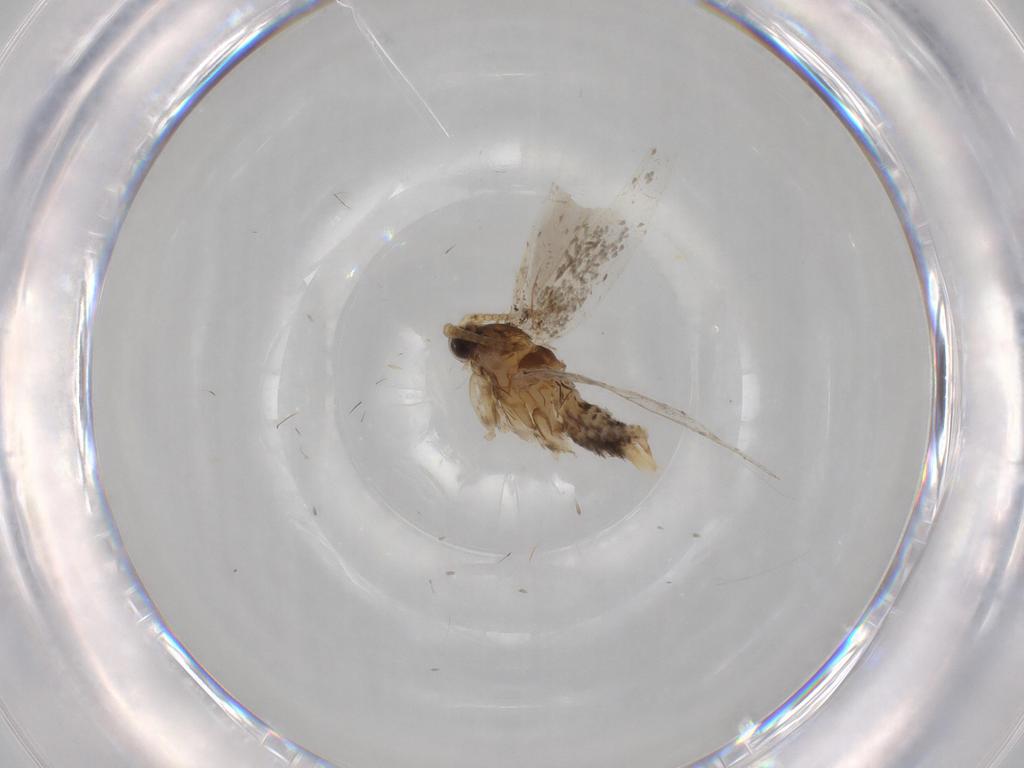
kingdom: Animalia
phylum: Arthropoda
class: Insecta
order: Lepidoptera
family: Tineidae
